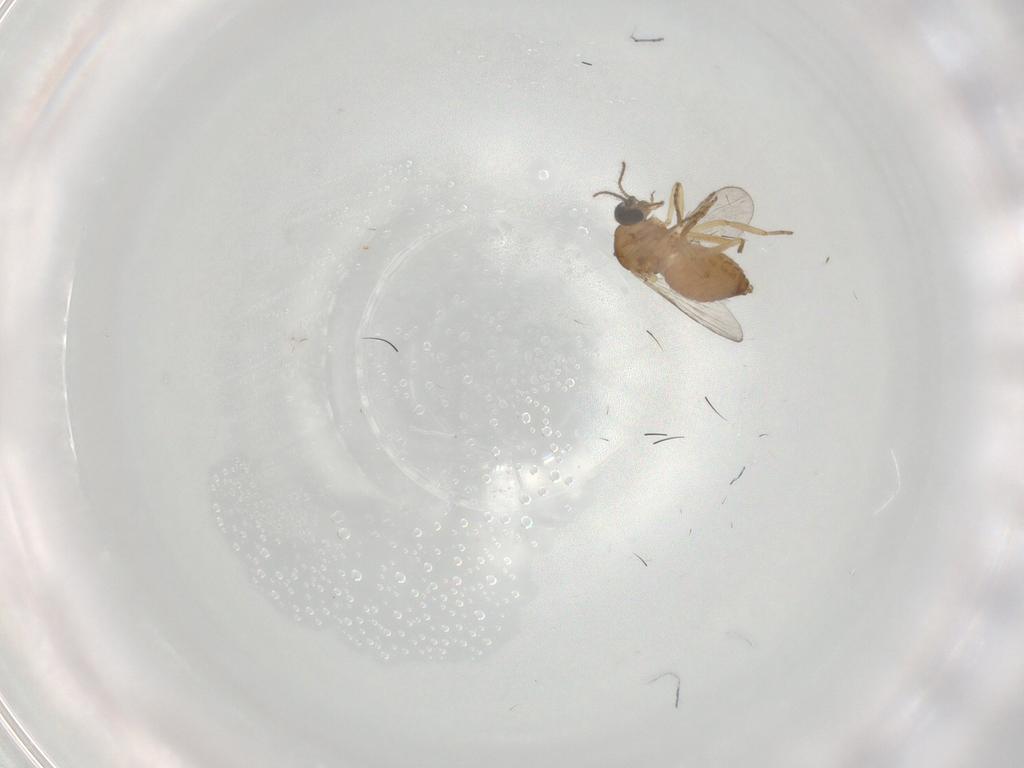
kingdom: Animalia
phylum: Arthropoda
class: Insecta
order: Diptera
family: Ceratopogonidae
